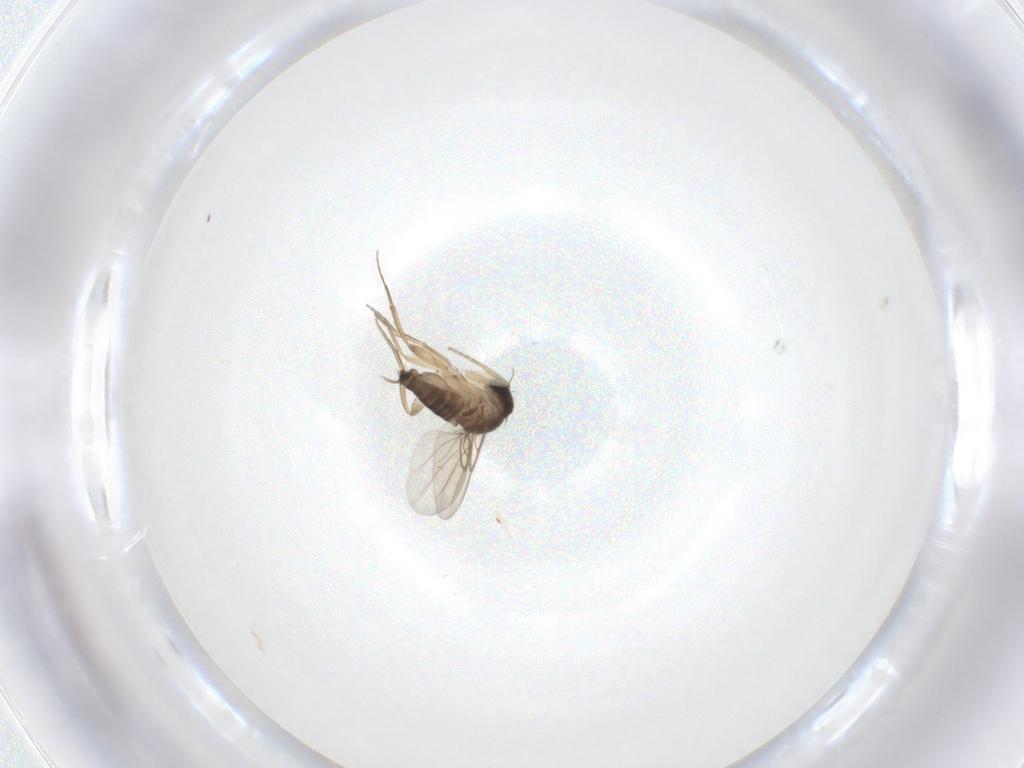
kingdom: Animalia
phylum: Arthropoda
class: Insecta
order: Diptera
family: Phoridae
